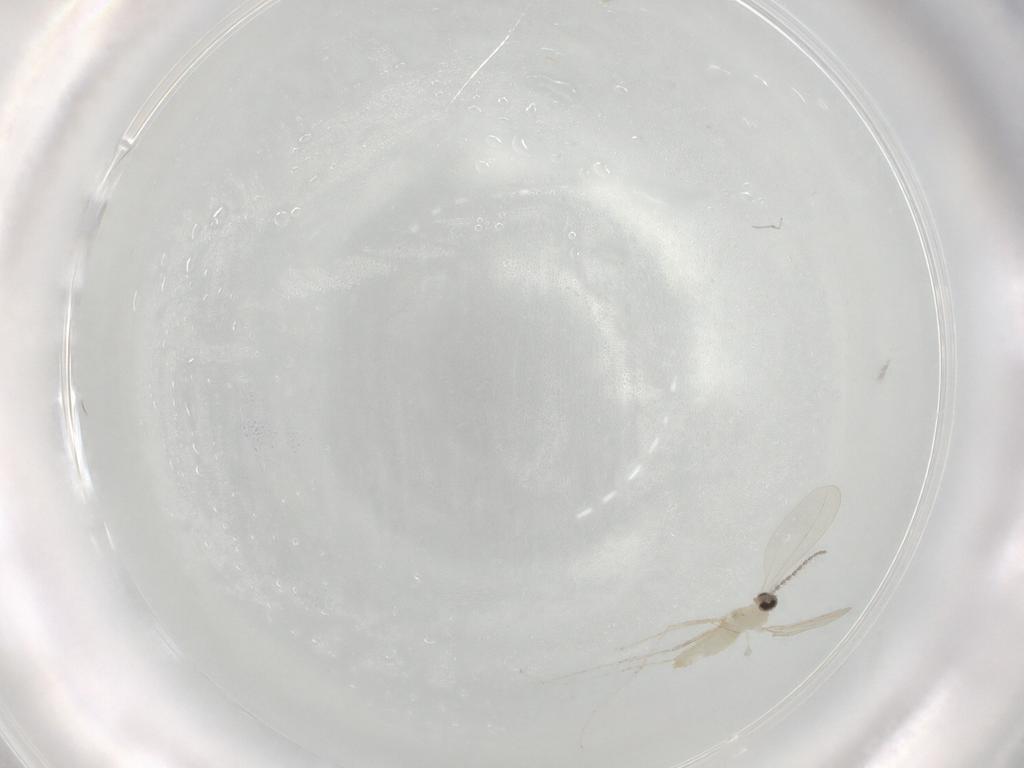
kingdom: Animalia
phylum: Arthropoda
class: Insecta
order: Diptera
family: Cecidomyiidae
